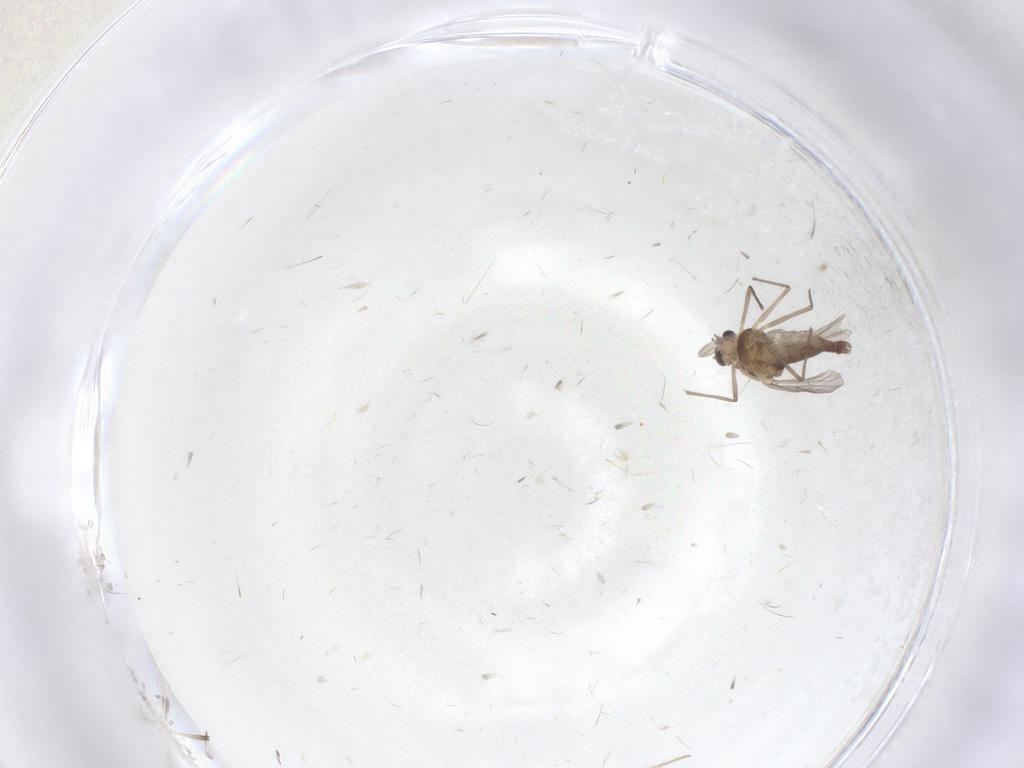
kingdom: Animalia
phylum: Arthropoda
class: Insecta
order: Diptera
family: Chironomidae
